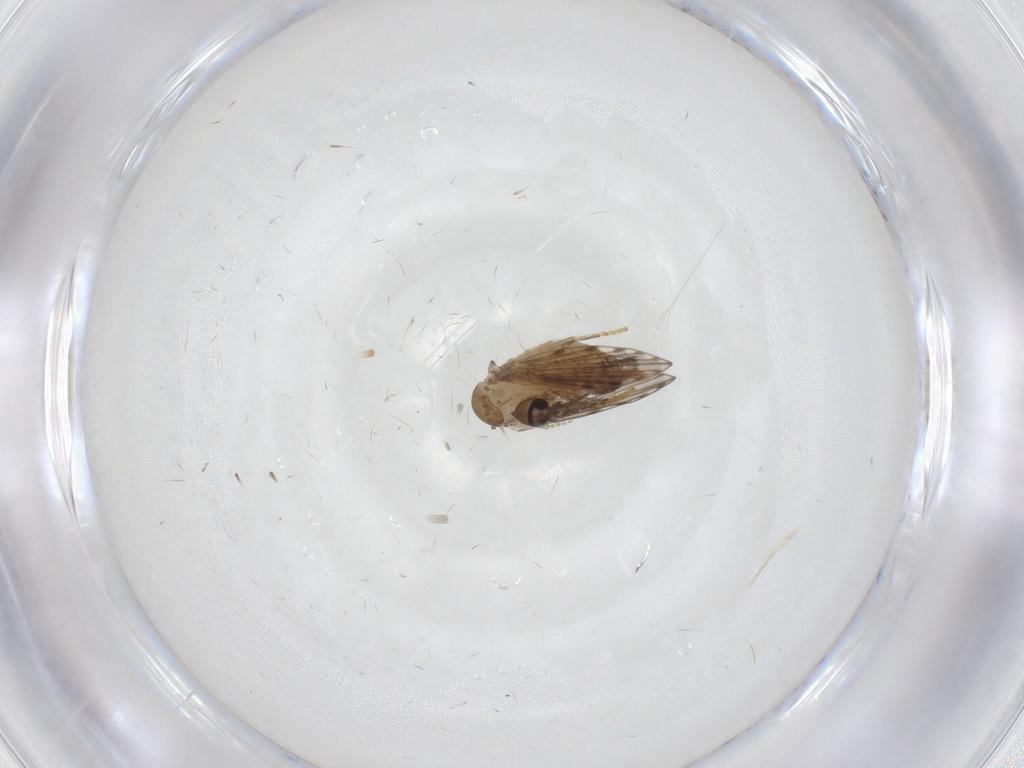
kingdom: Animalia
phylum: Arthropoda
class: Insecta
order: Diptera
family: Psychodidae
